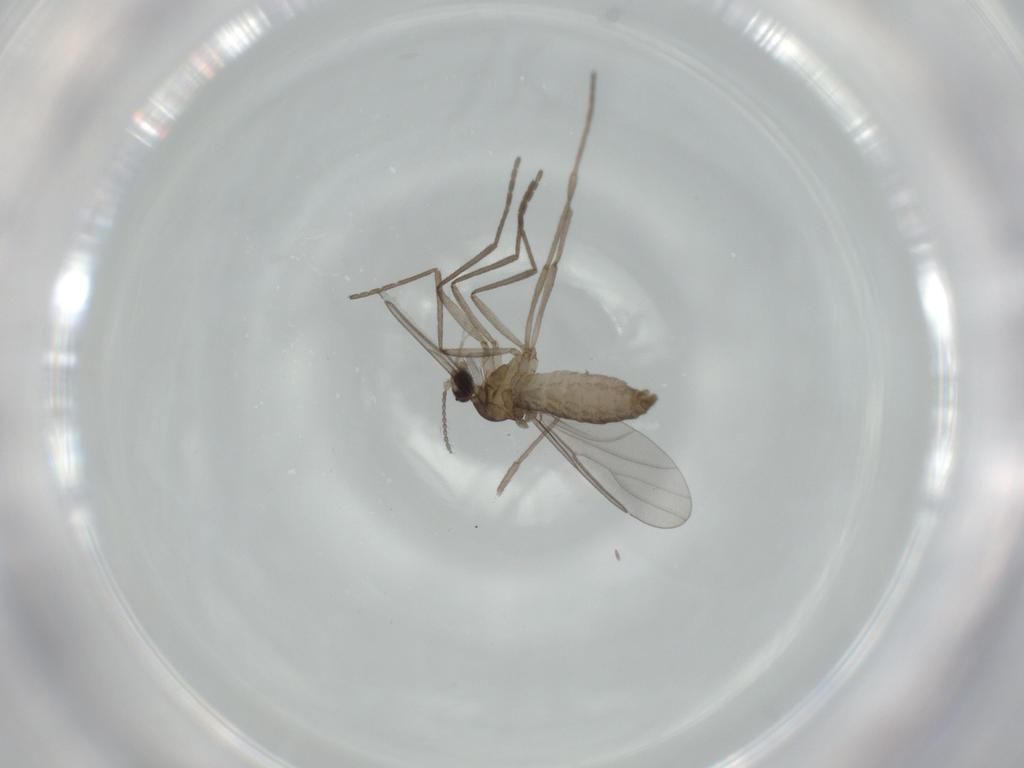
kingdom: Animalia
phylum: Arthropoda
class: Insecta
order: Diptera
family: Cecidomyiidae
